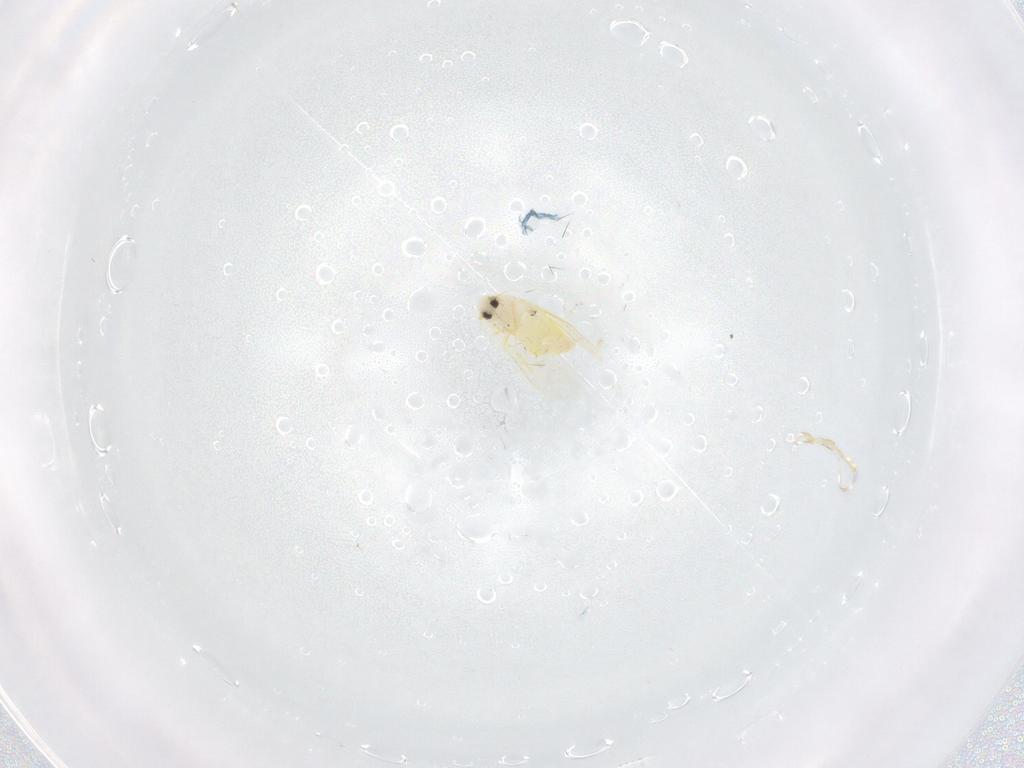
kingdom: Animalia
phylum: Arthropoda
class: Insecta
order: Hemiptera
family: Aleyrodidae
